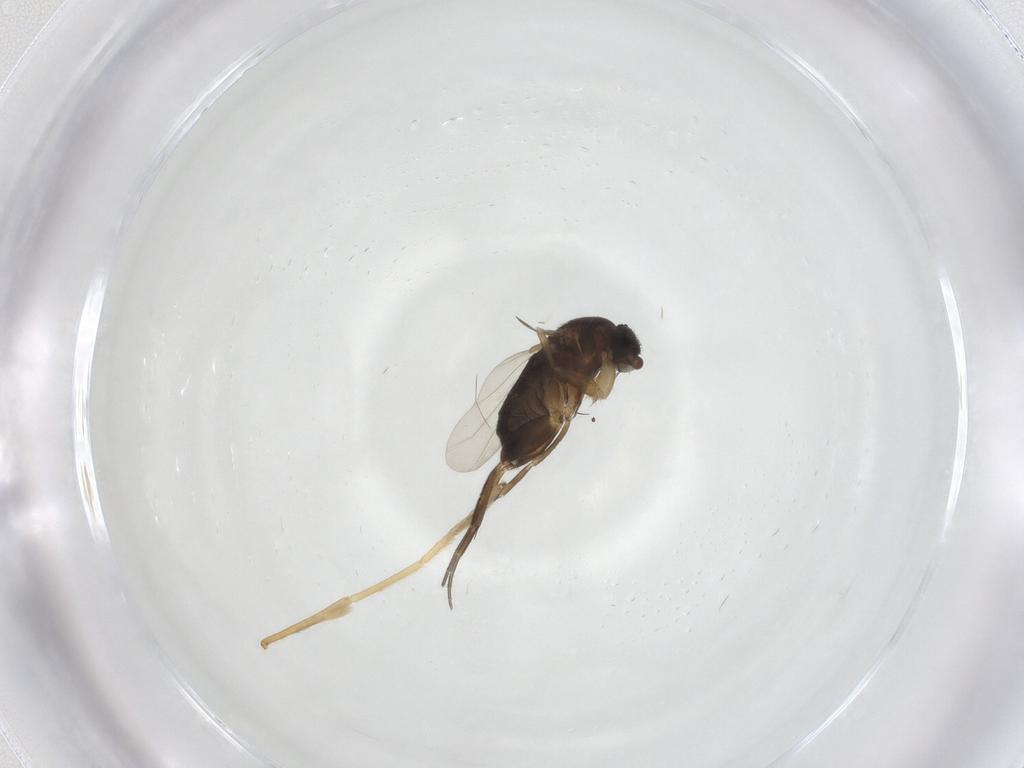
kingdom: Animalia
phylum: Arthropoda
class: Insecta
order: Diptera
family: Phoridae
